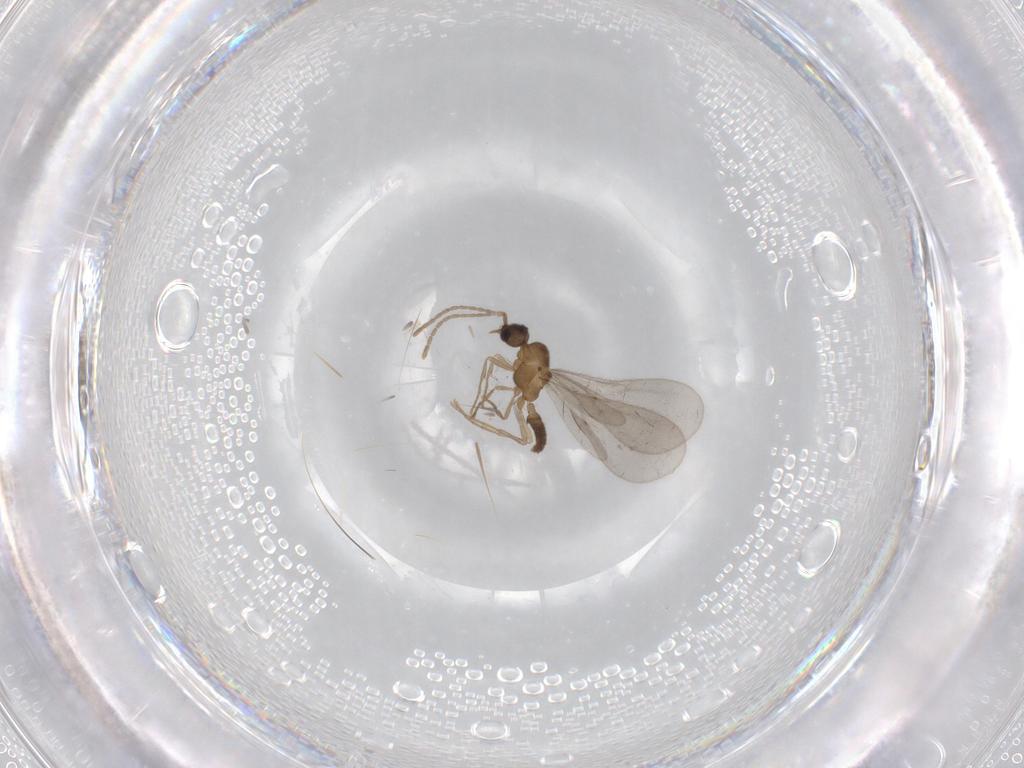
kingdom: Animalia
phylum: Arthropoda
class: Insecta
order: Hymenoptera
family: Formicidae
